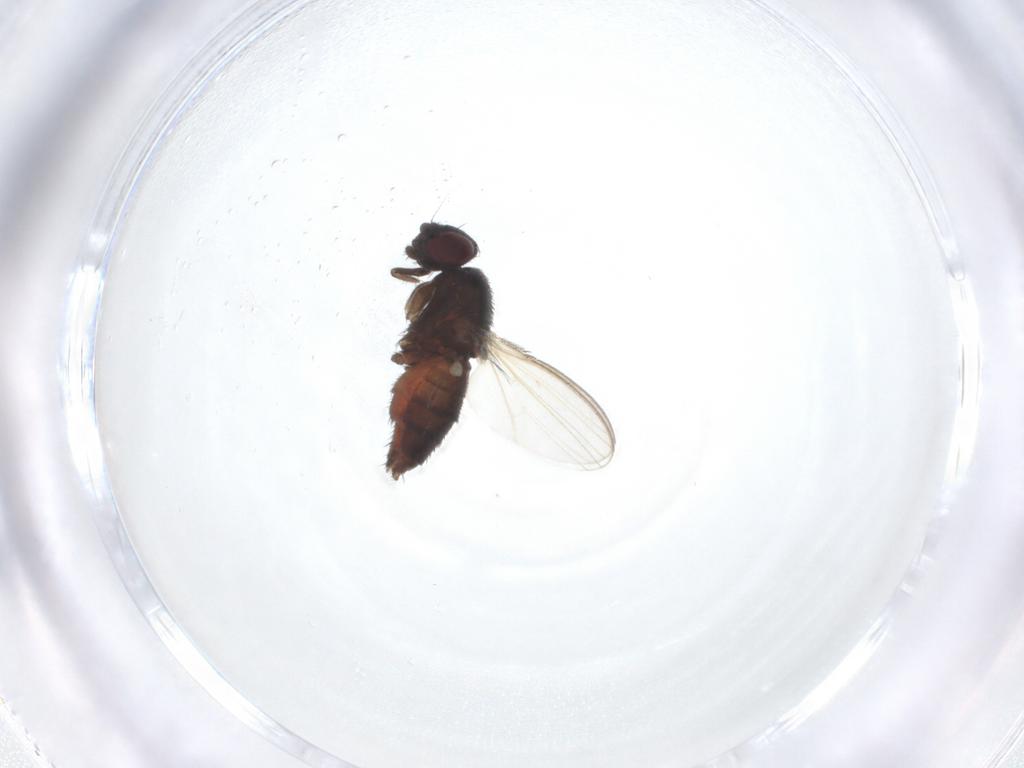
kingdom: Animalia
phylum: Arthropoda
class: Insecta
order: Diptera
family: Milichiidae
